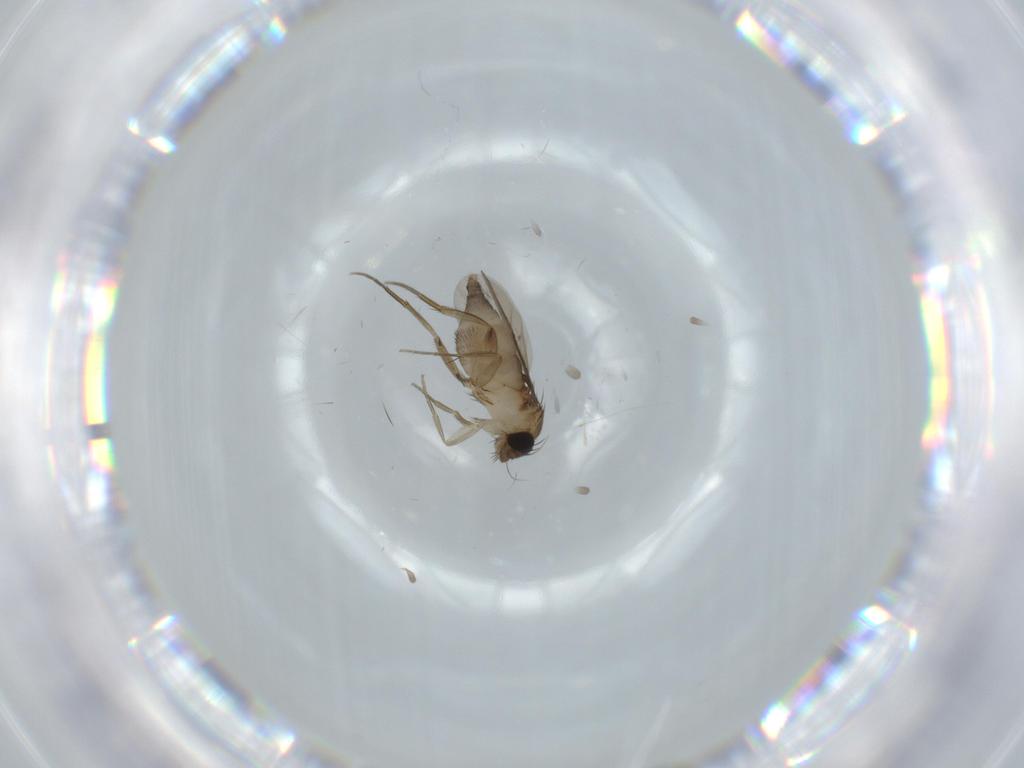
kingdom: Animalia
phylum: Arthropoda
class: Insecta
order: Diptera
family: Phoridae
